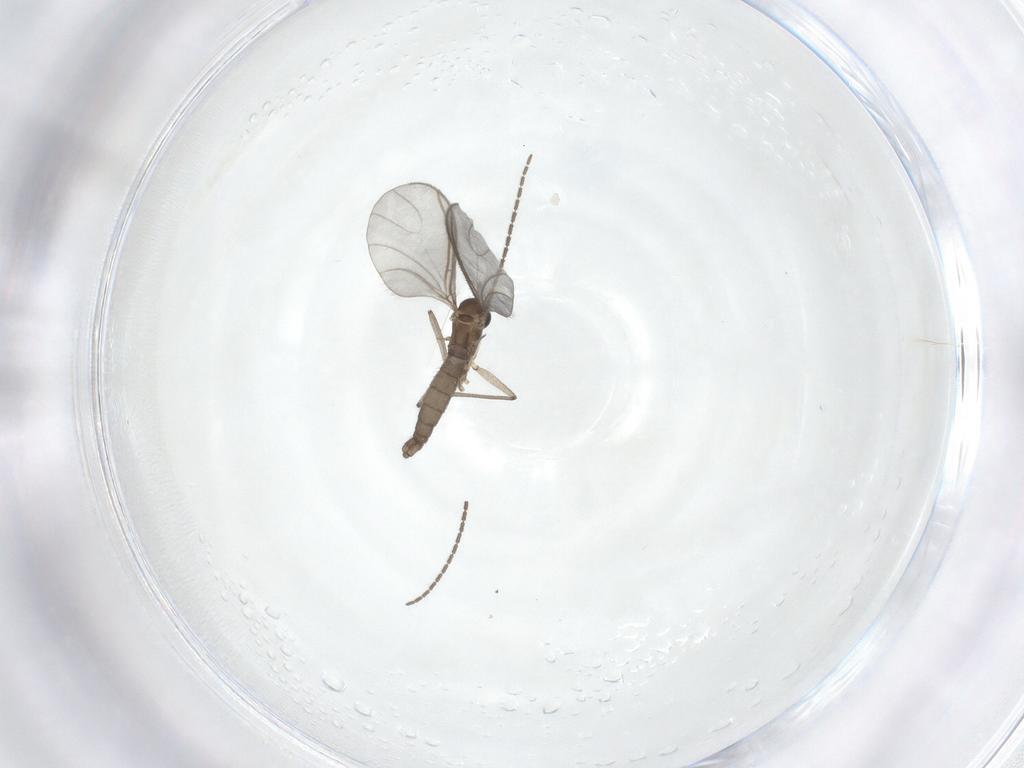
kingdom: Animalia
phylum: Arthropoda
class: Insecta
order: Diptera
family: Sciaridae
